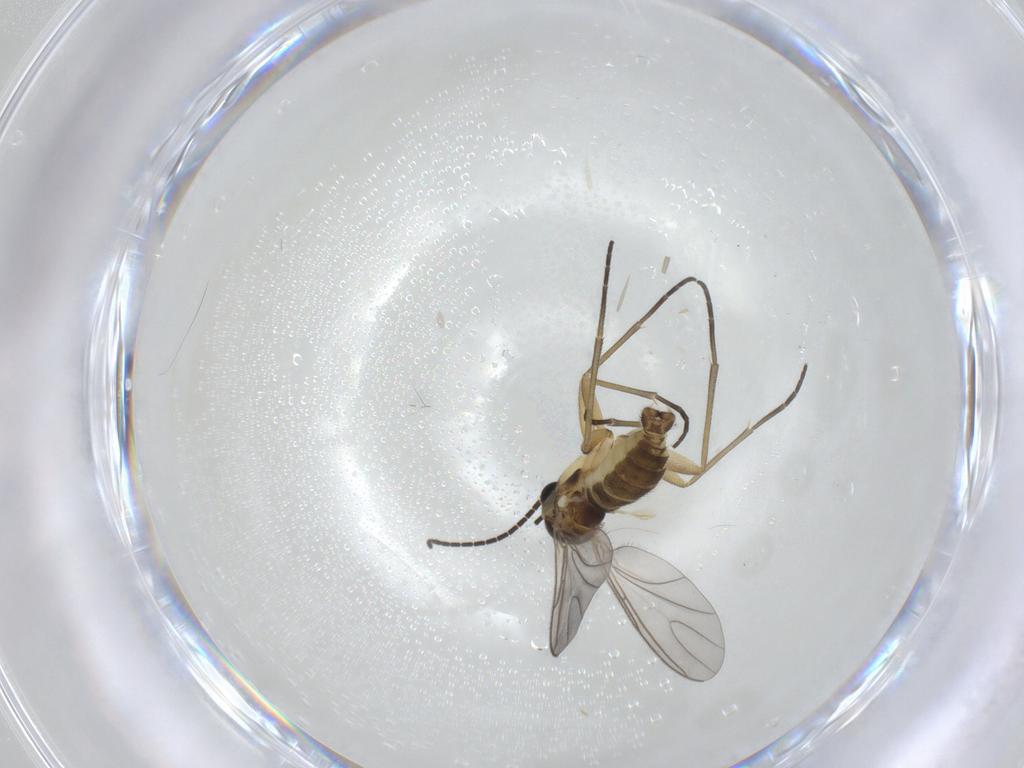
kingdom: Animalia
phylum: Arthropoda
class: Insecta
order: Diptera
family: Sciaridae
